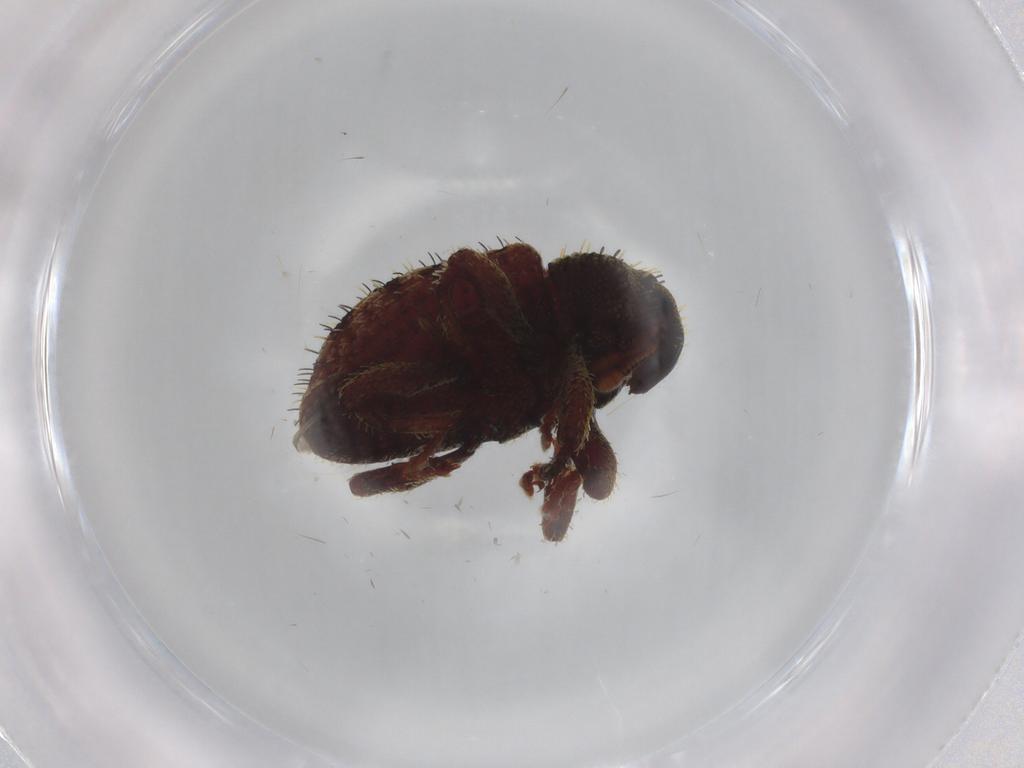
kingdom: Animalia
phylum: Arthropoda
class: Insecta
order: Coleoptera
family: Curculionidae
